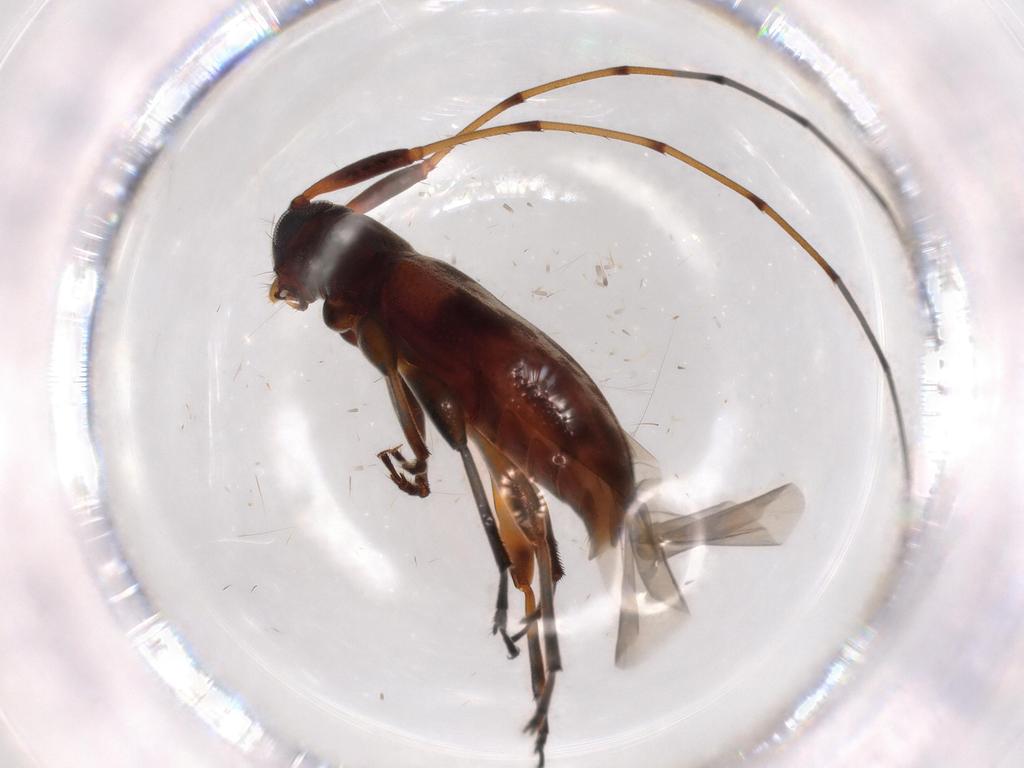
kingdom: Animalia
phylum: Arthropoda
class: Insecta
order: Coleoptera
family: Cerambycidae
